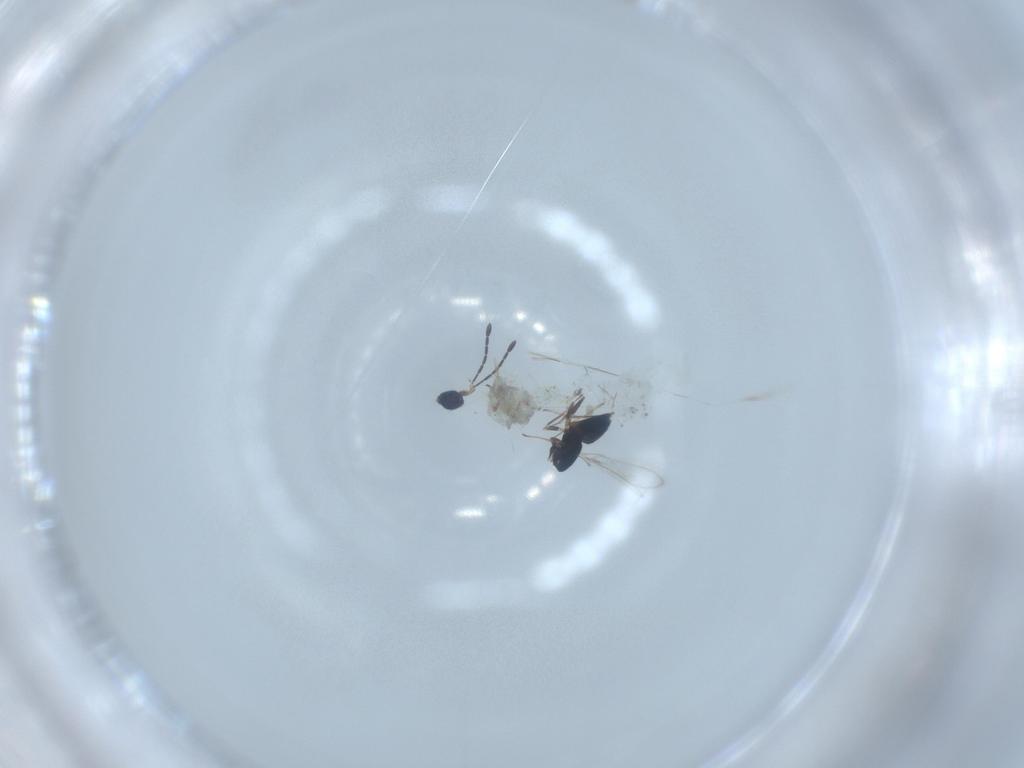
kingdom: Animalia
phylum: Arthropoda
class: Insecta
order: Hymenoptera
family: Mymaridae
